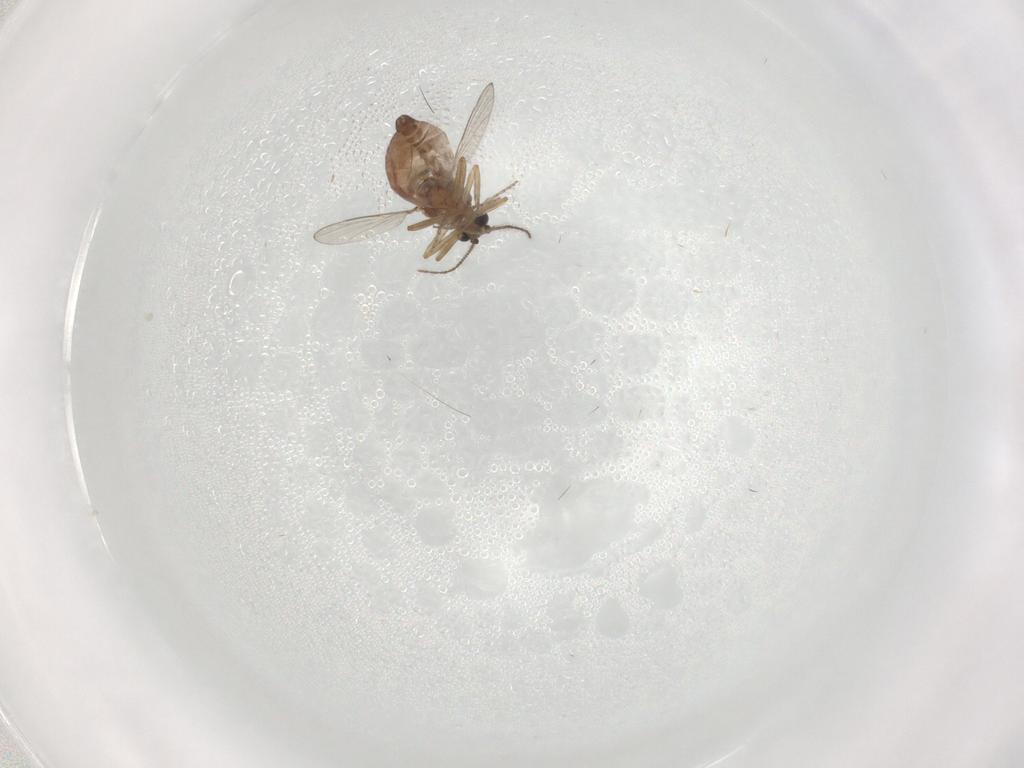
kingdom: Animalia
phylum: Arthropoda
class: Insecta
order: Diptera
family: Ceratopogonidae
